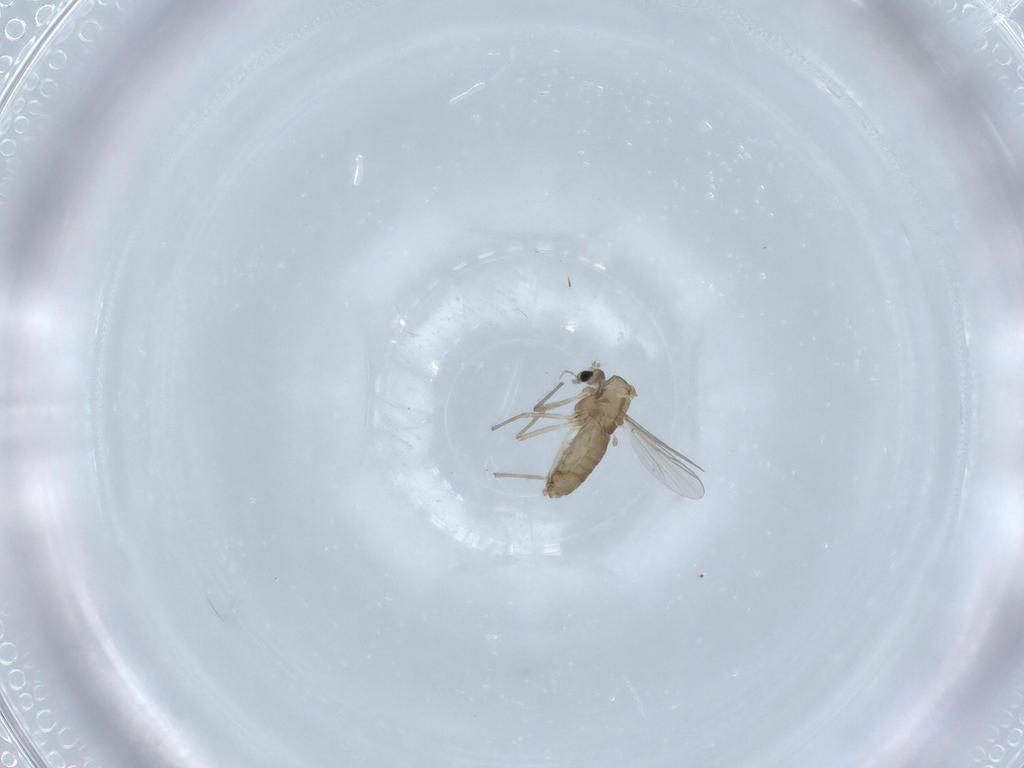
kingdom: Animalia
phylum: Arthropoda
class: Insecta
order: Diptera
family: Chironomidae
